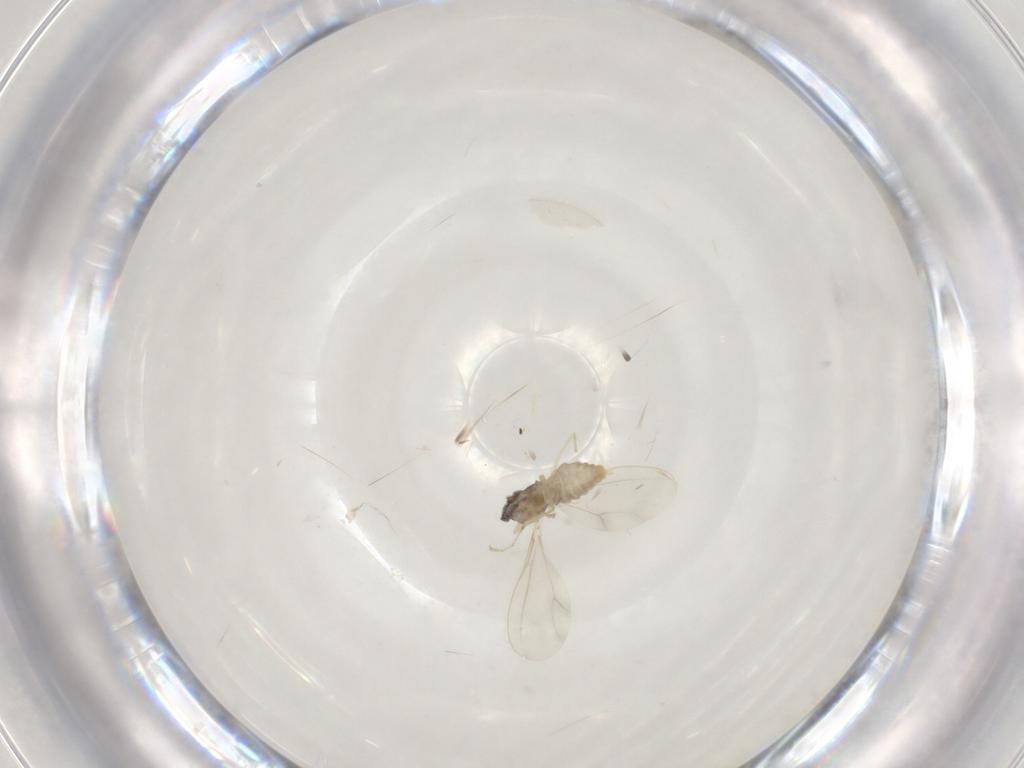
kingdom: Animalia
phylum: Arthropoda
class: Insecta
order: Diptera
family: Cecidomyiidae
